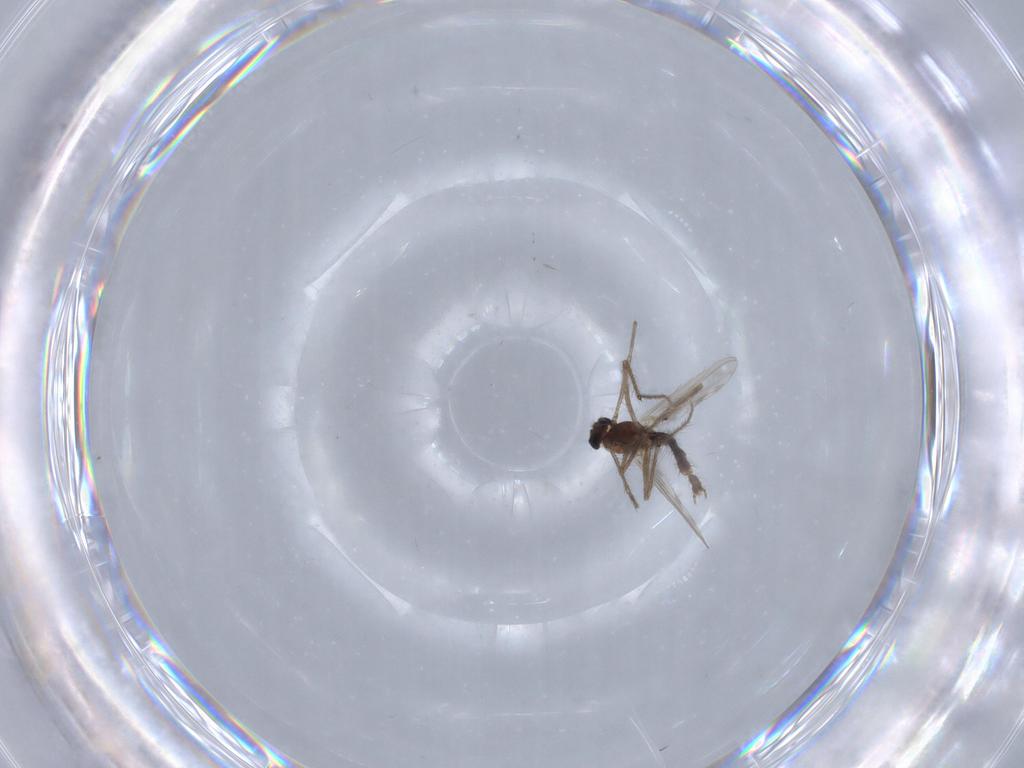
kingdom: Animalia
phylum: Arthropoda
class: Insecta
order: Diptera
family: Chironomidae
